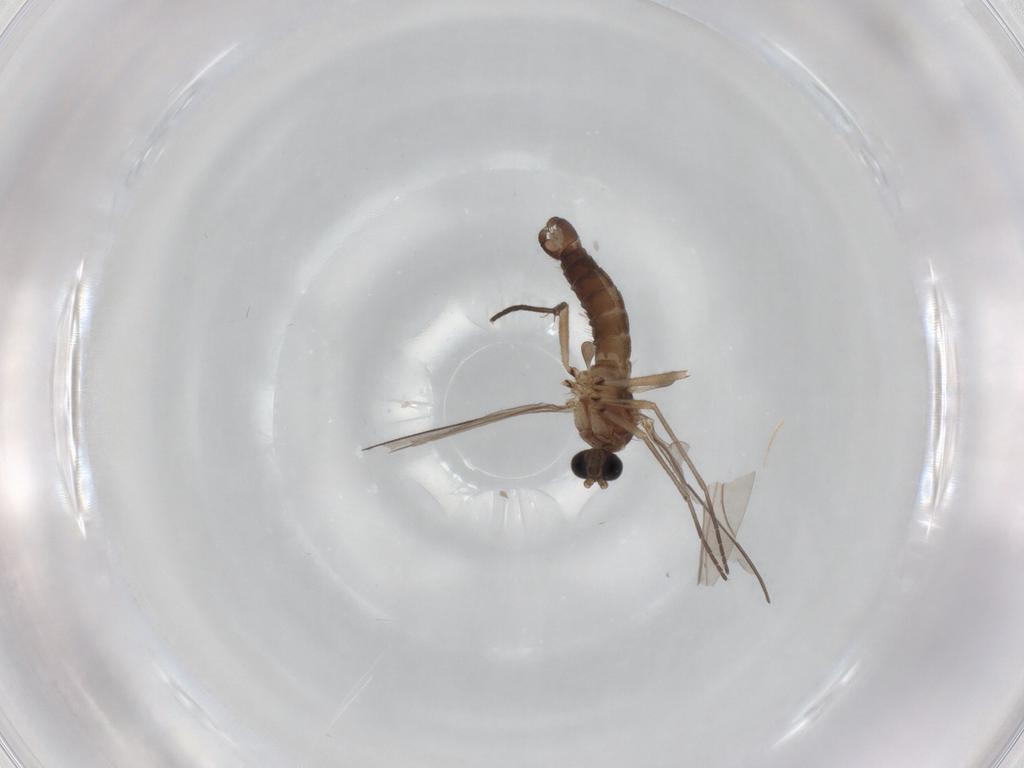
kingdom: Animalia
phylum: Arthropoda
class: Insecta
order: Diptera
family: Sciaridae
